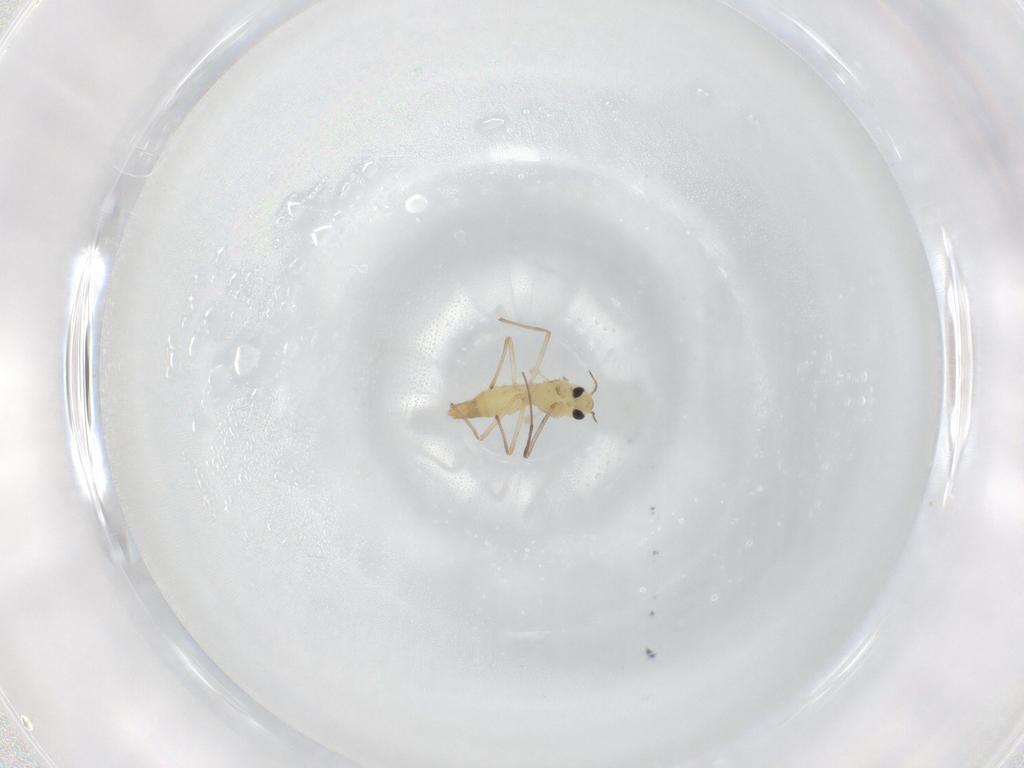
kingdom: Animalia
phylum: Arthropoda
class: Insecta
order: Diptera
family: Chironomidae
